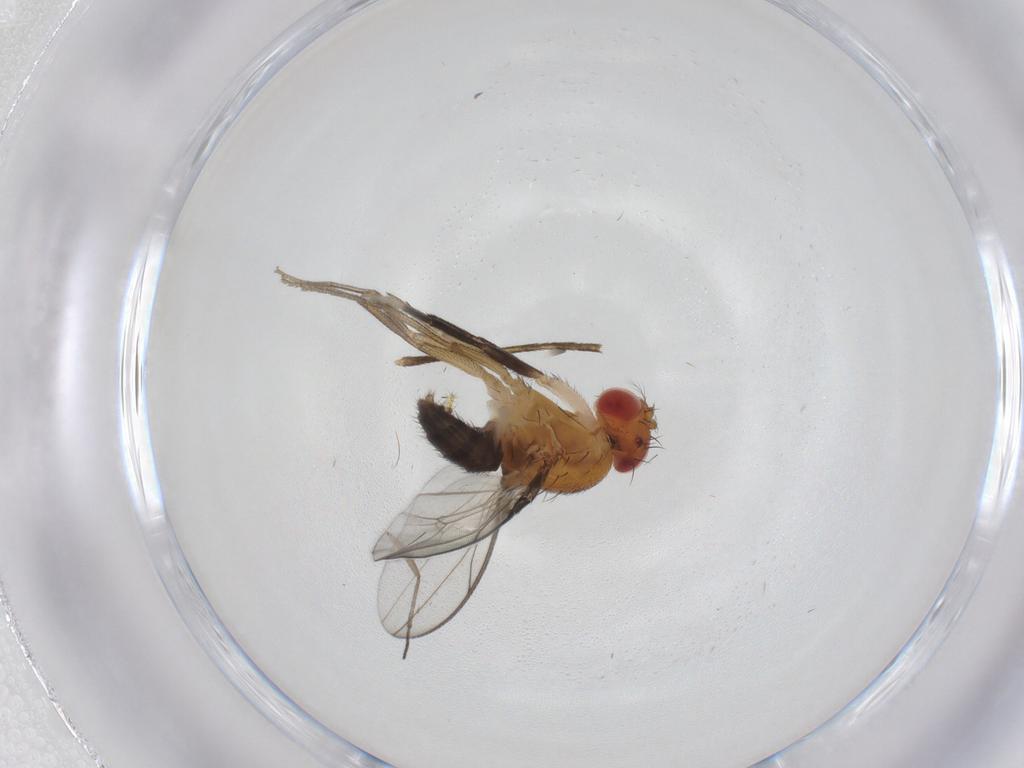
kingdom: Animalia
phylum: Arthropoda
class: Insecta
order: Diptera
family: Drosophilidae
